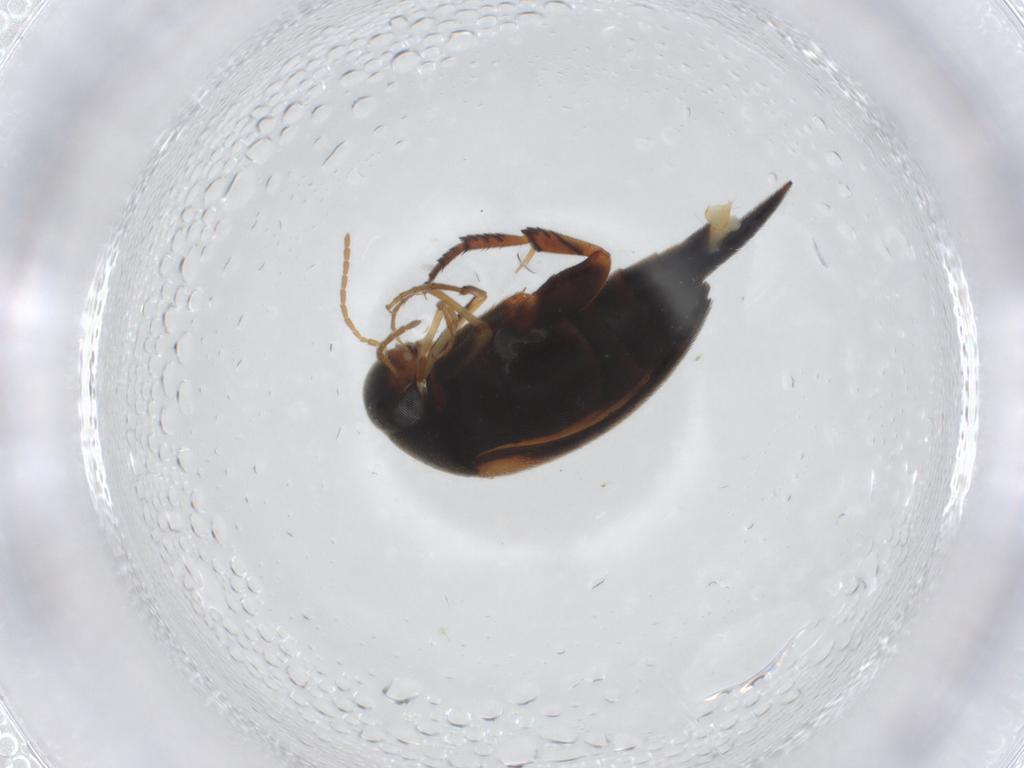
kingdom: Animalia
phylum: Arthropoda
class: Insecta
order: Coleoptera
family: Mordellidae
